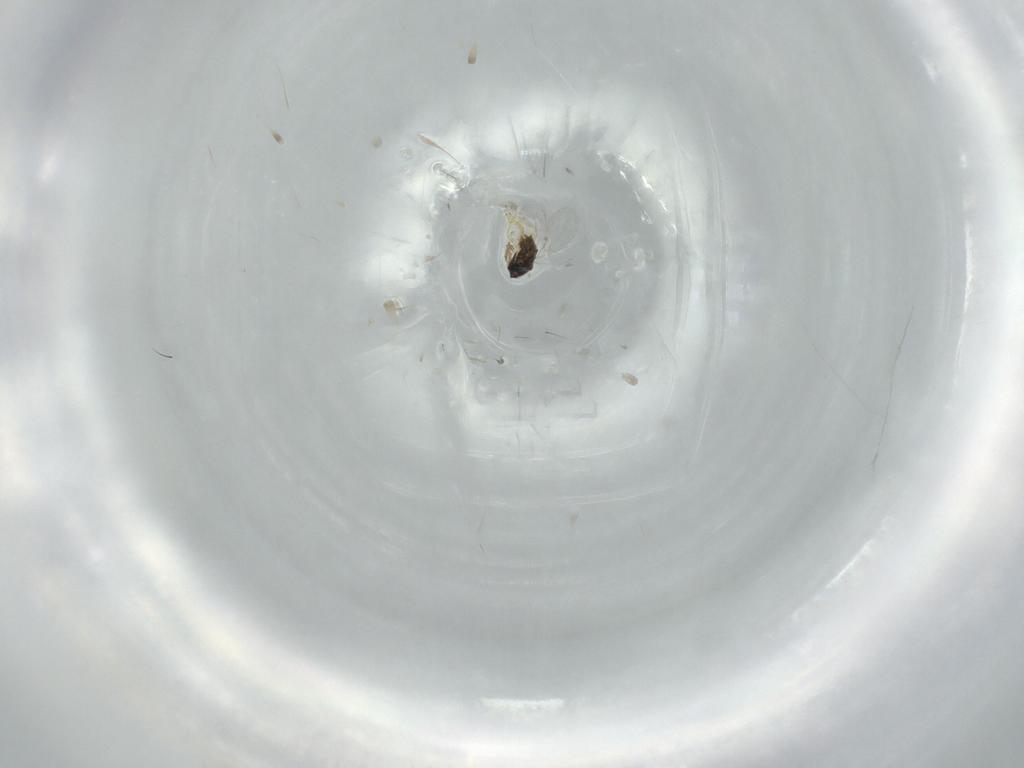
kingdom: Animalia
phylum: Arthropoda
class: Insecta
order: Hymenoptera
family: Encyrtidae
